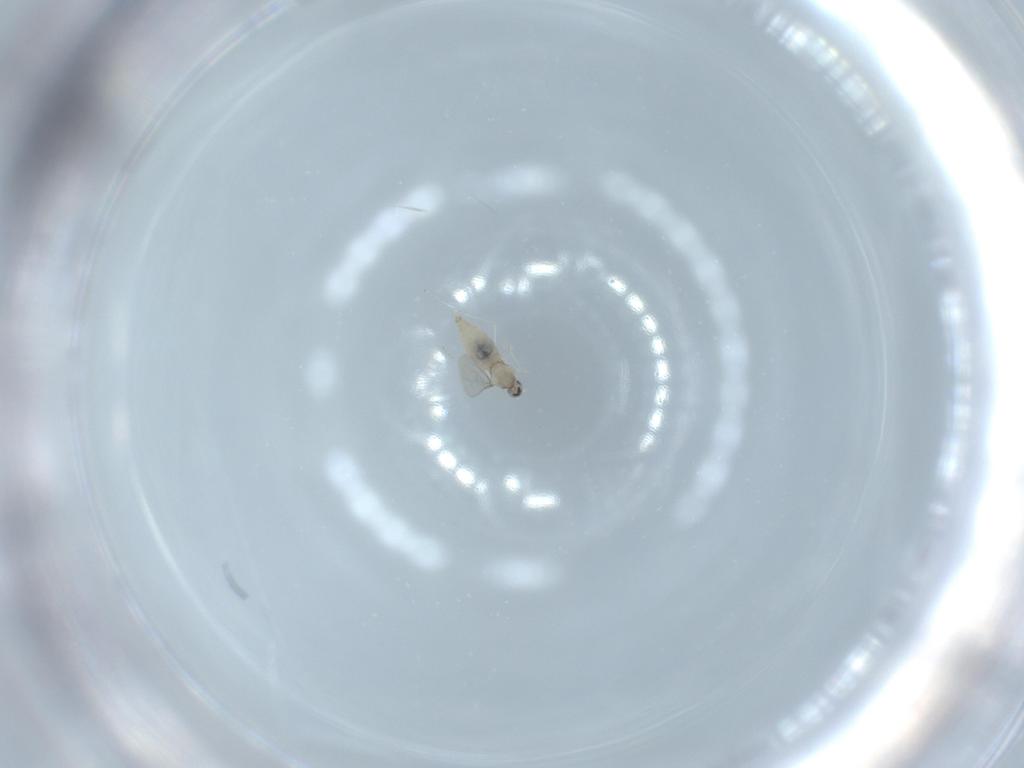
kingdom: Animalia
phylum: Arthropoda
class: Insecta
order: Diptera
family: Cecidomyiidae
